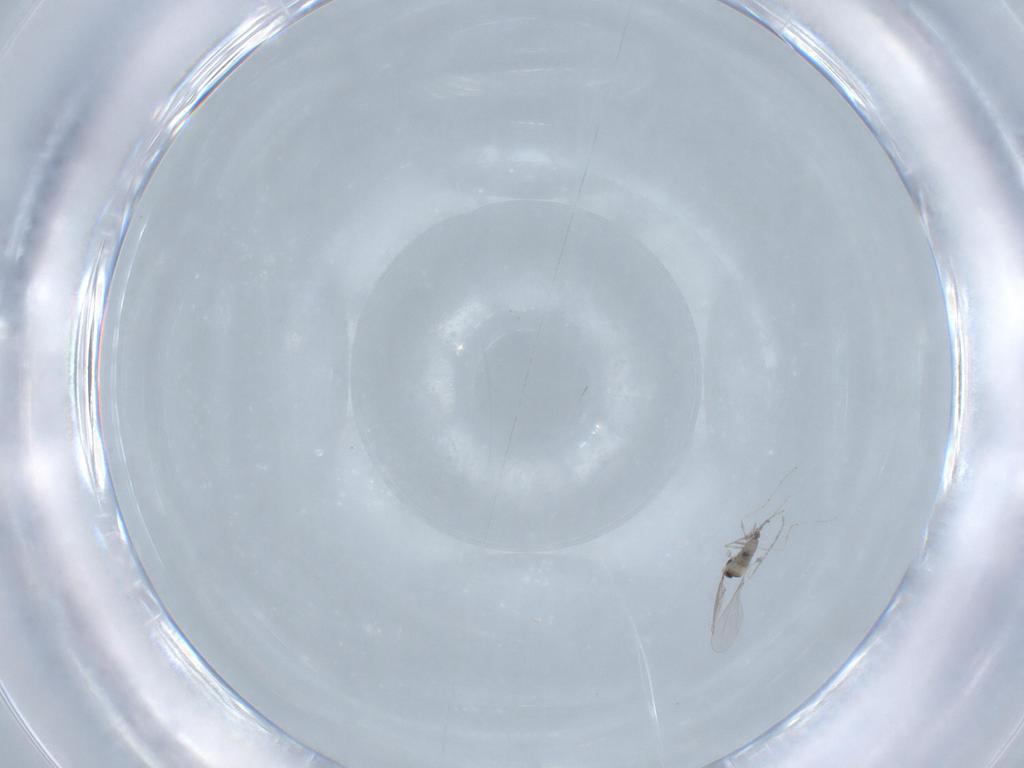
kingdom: Animalia
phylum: Arthropoda
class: Insecta
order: Diptera
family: Cecidomyiidae
